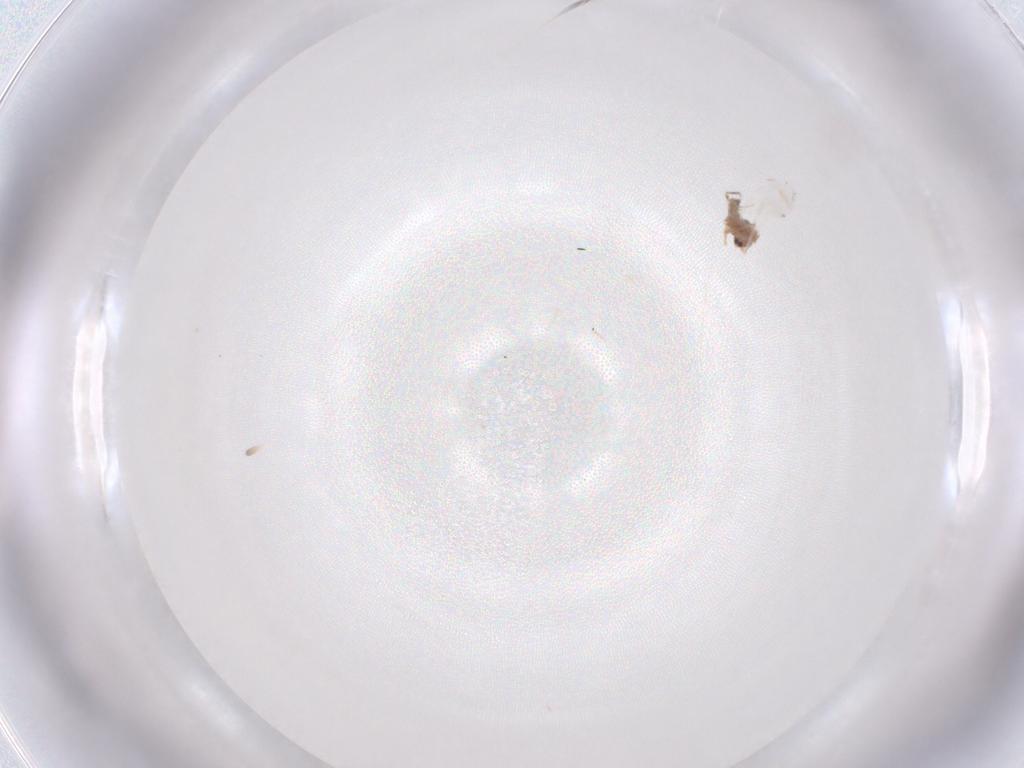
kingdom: Animalia
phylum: Arthropoda
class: Insecta
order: Hemiptera
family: Pseudococcidae
